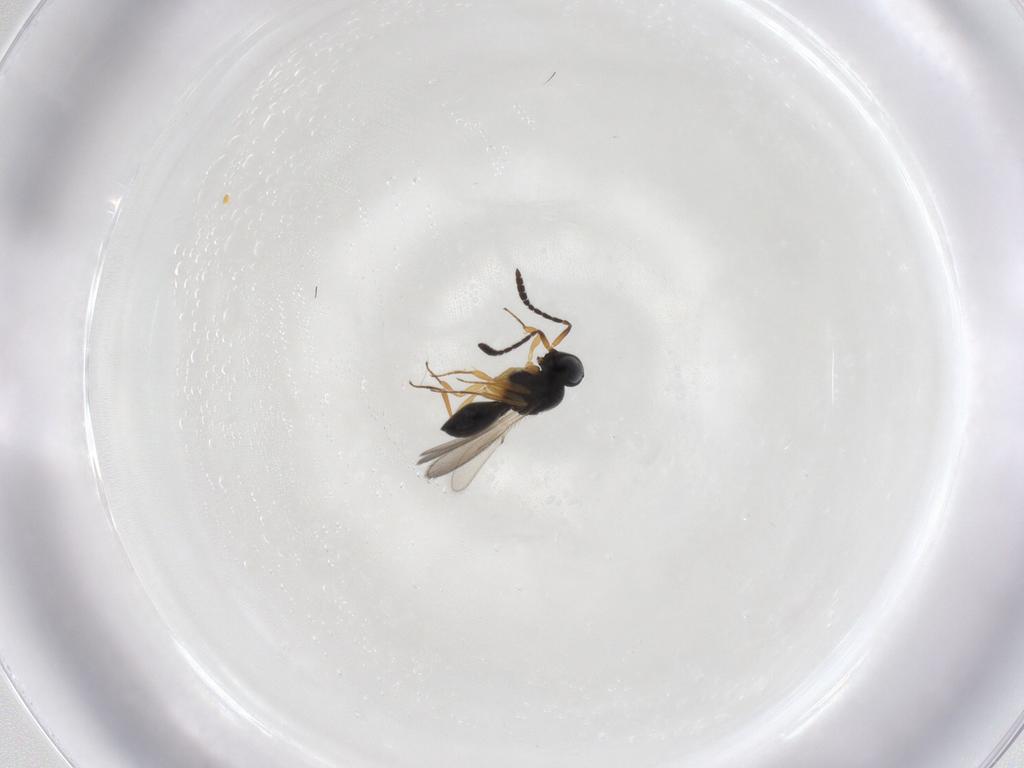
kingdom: Animalia
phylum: Arthropoda
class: Insecta
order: Hymenoptera
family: Scelionidae
